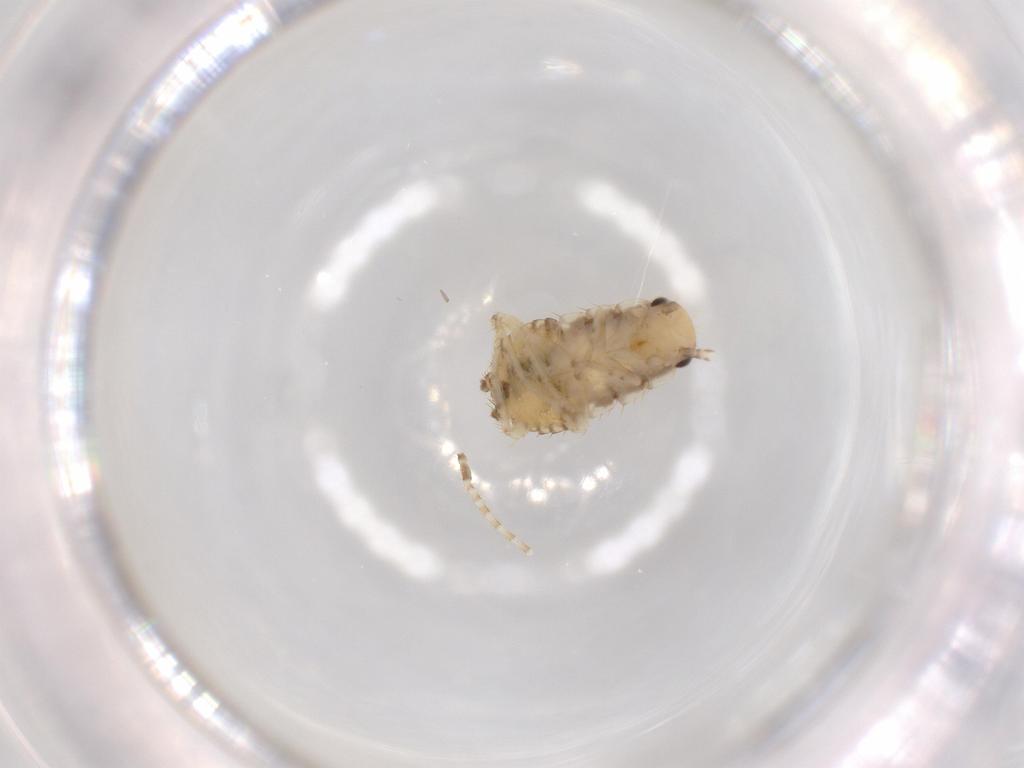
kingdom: Animalia
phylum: Arthropoda
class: Insecta
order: Blattodea
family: Ectobiidae
